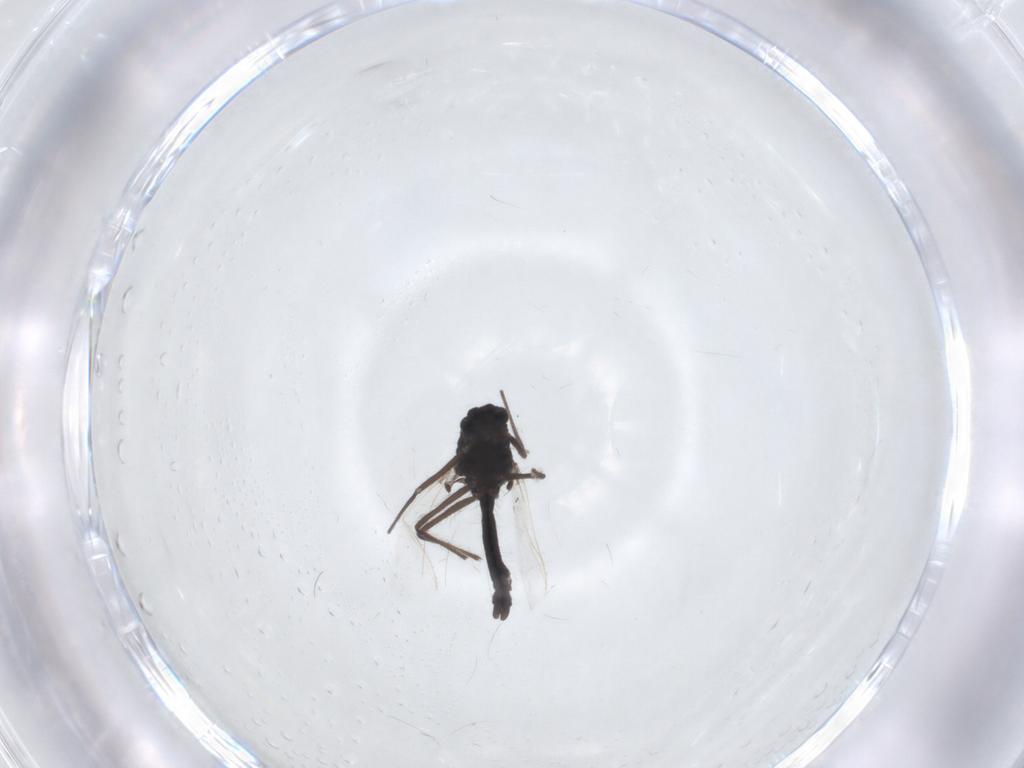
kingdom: Animalia
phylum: Arthropoda
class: Insecta
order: Diptera
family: Chironomidae
